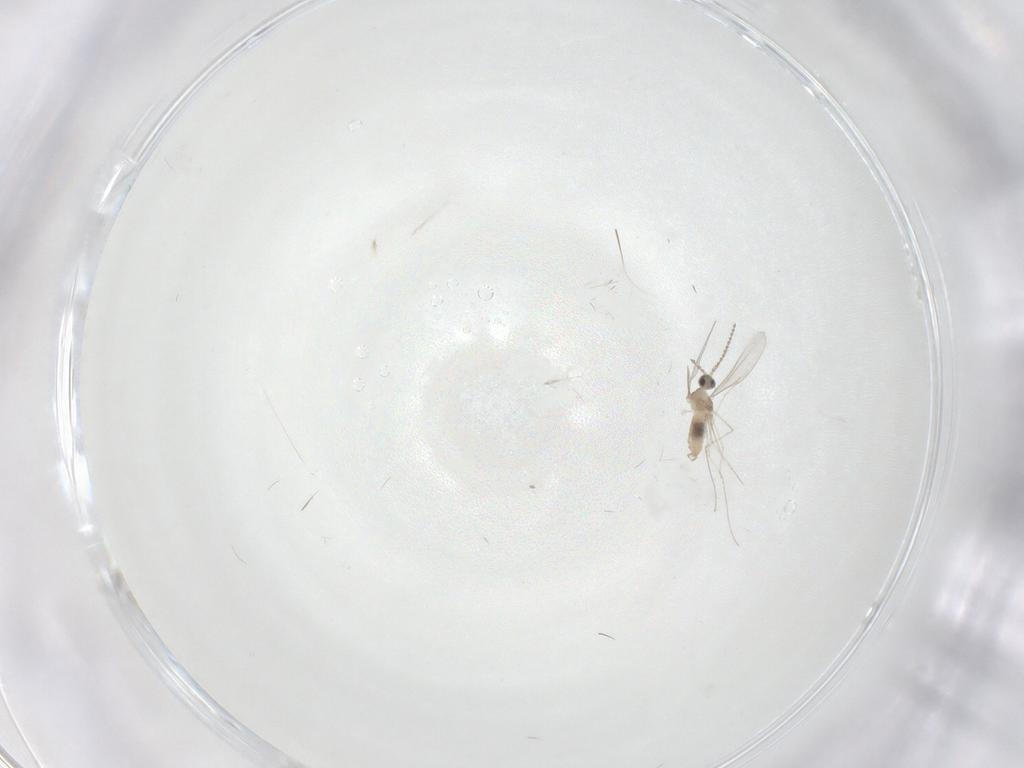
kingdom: Animalia
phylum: Arthropoda
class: Insecta
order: Diptera
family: Cecidomyiidae
